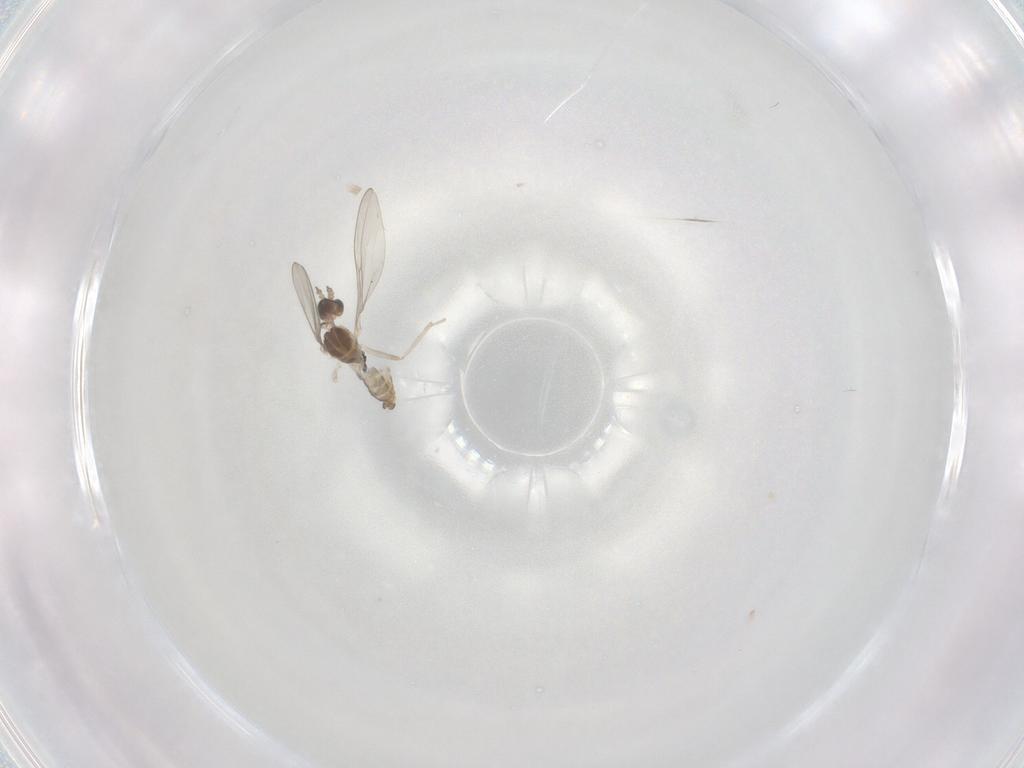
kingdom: Animalia
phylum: Arthropoda
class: Insecta
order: Diptera
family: Cecidomyiidae
